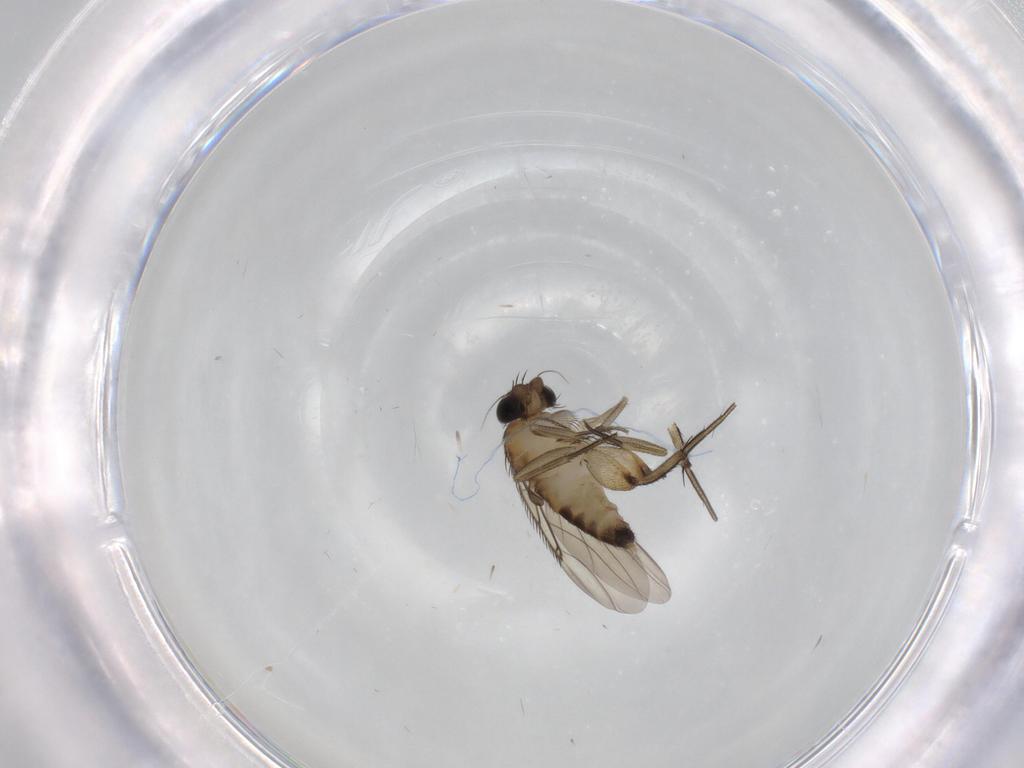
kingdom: Animalia
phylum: Arthropoda
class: Insecta
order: Diptera
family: Phoridae
